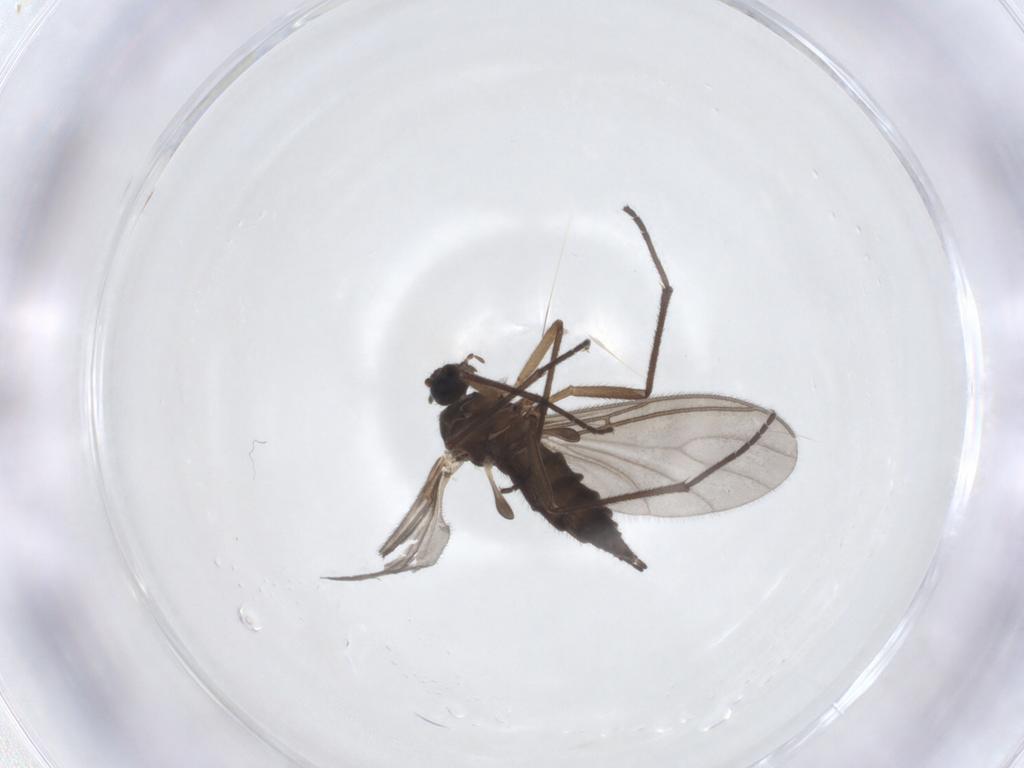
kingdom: Animalia
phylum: Arthropoda
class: Insecta
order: Diptera
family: Sciaridae
